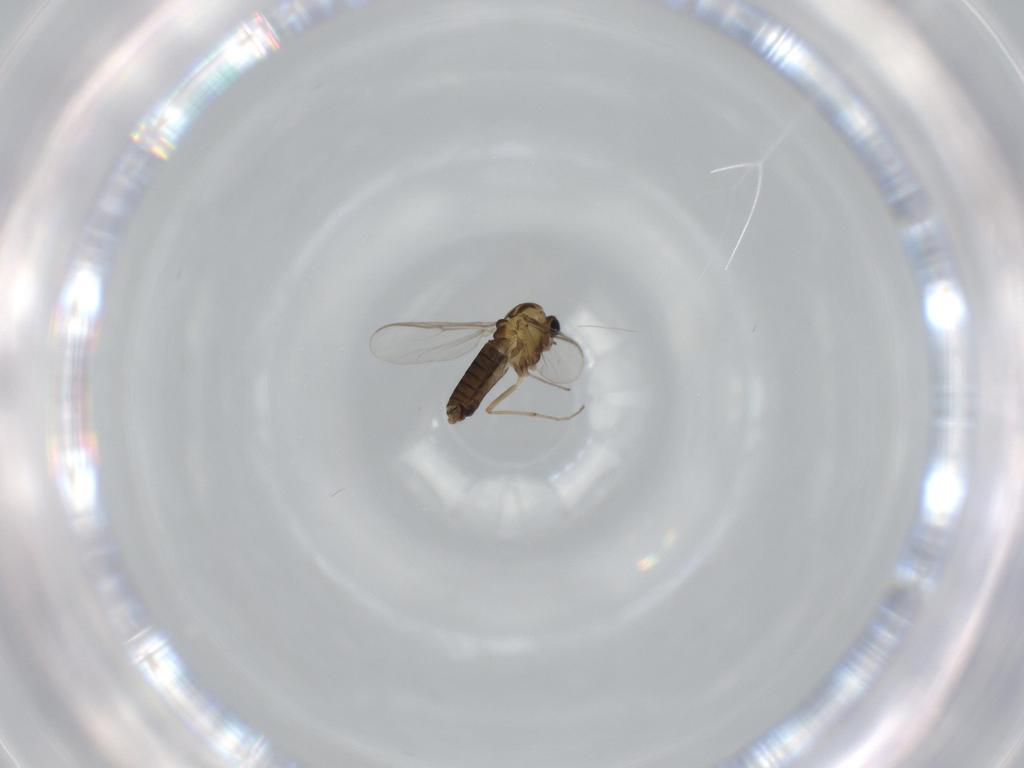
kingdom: Animalia
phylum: Arthropoda
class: Insecta
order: Diptera
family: Chironomidae
